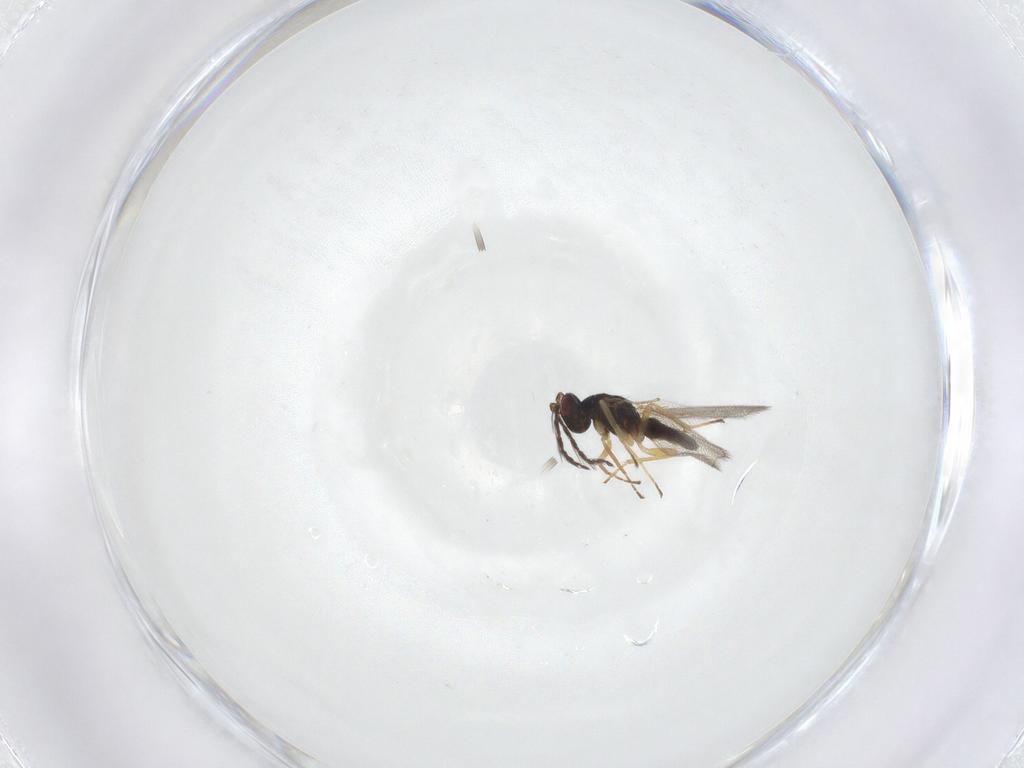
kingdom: Animalia
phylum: Arthropoda
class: Insecta
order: Hymenoptera
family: Eulophidae
